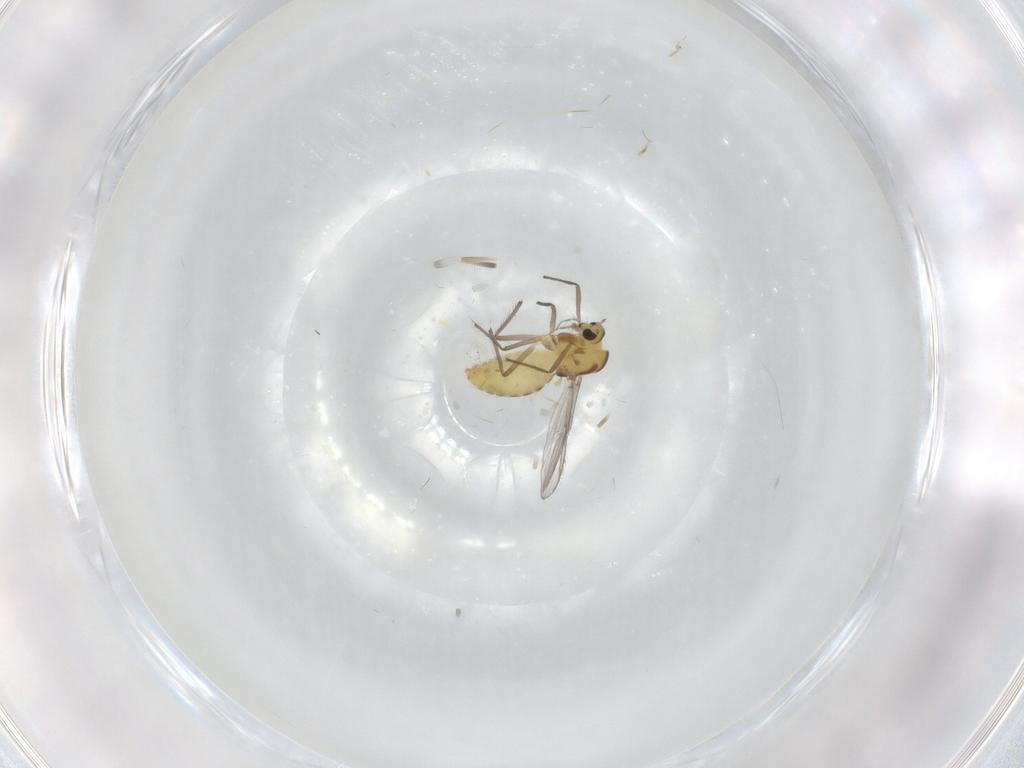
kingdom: Animalia
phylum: Arthropoda
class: Insecta
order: Diptera
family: Chironomidae
